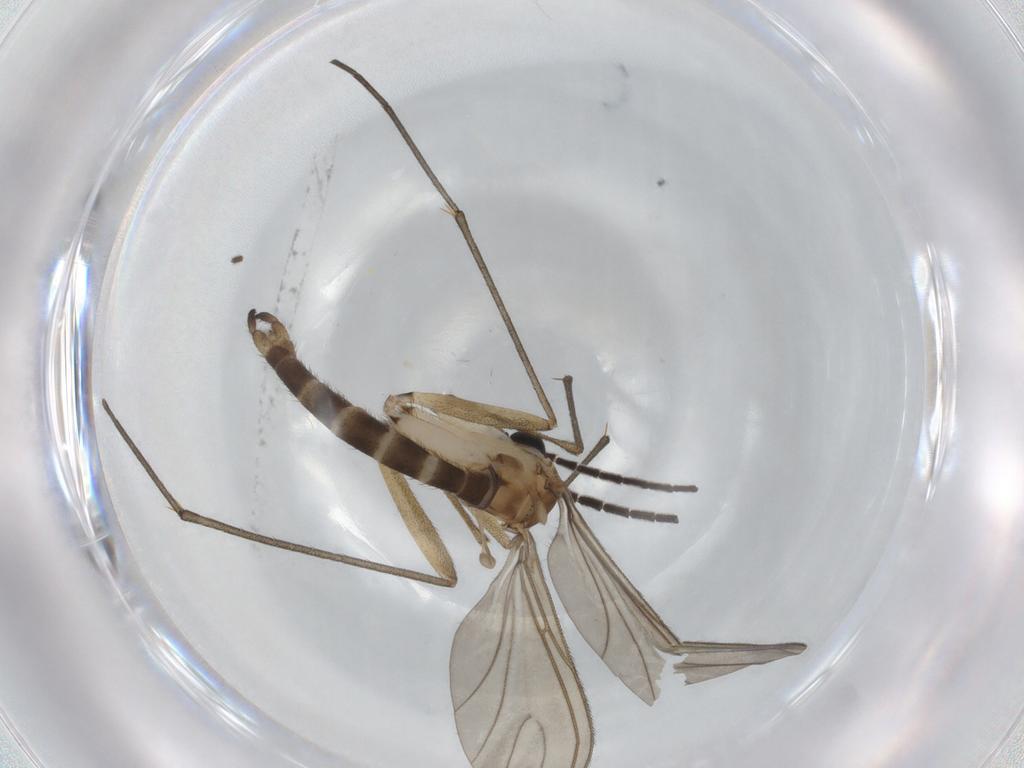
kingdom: Animalia
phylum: Arthropoda
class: Insecta
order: Diptera
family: Sciaridae
